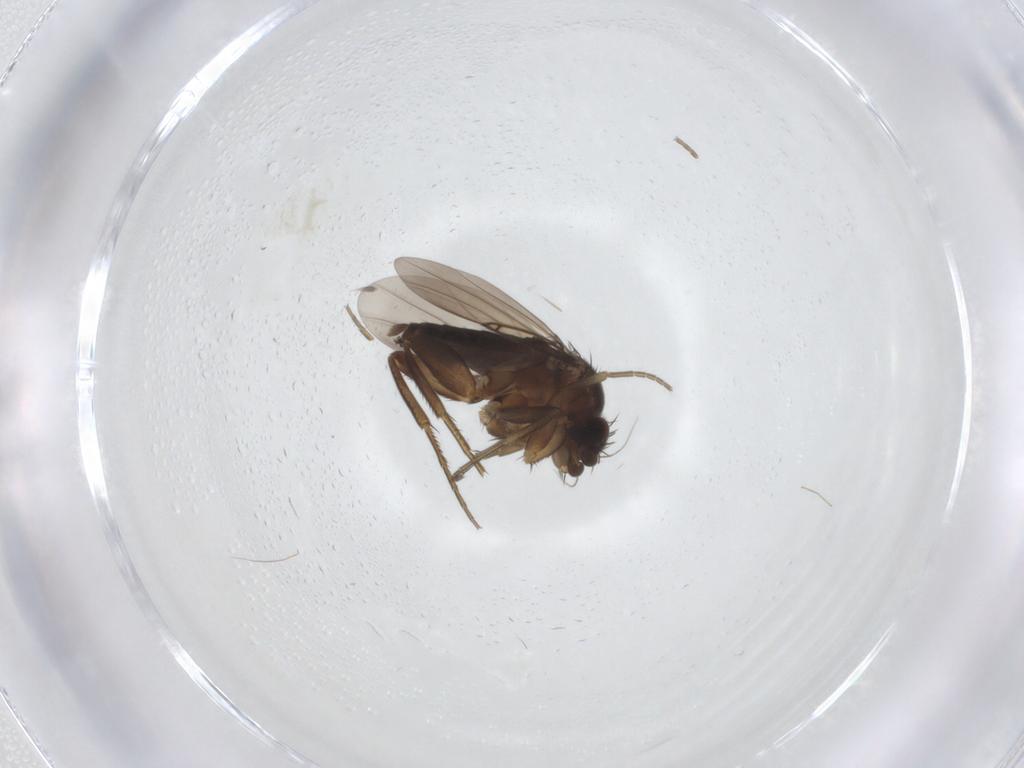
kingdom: Animalia
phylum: Arthropoda
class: Insecta
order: Diptera
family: Phoridae
